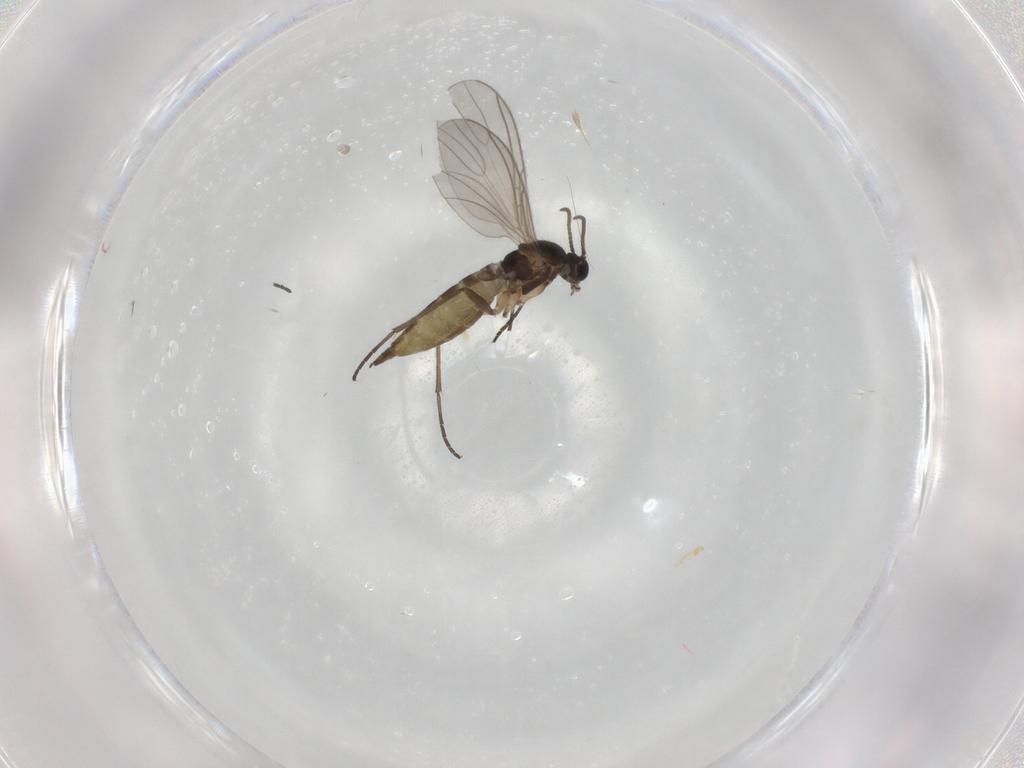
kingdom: Animalia
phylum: Arthropoda
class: Insecta
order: Diptera
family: Sciaridae
